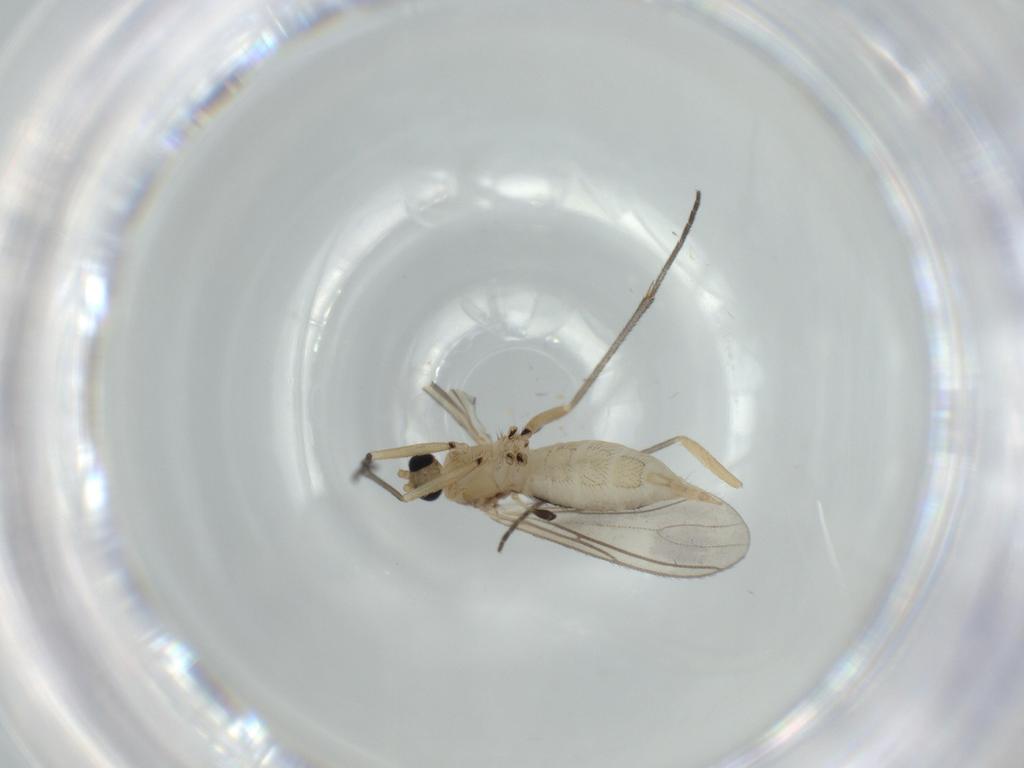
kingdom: Animalia
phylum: Arthropoda
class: Insecta
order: Diptera
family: Sciaridae
